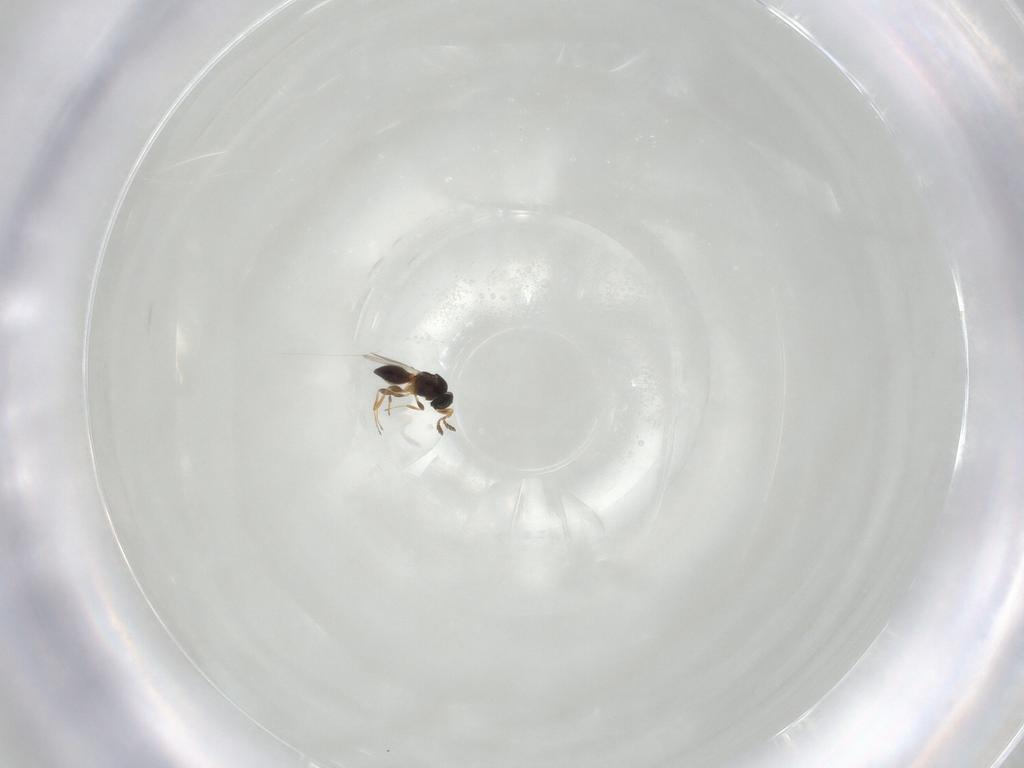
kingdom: Animalia
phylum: Arthropoda
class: Insecta
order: Hymenoptera
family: Platygastridae
